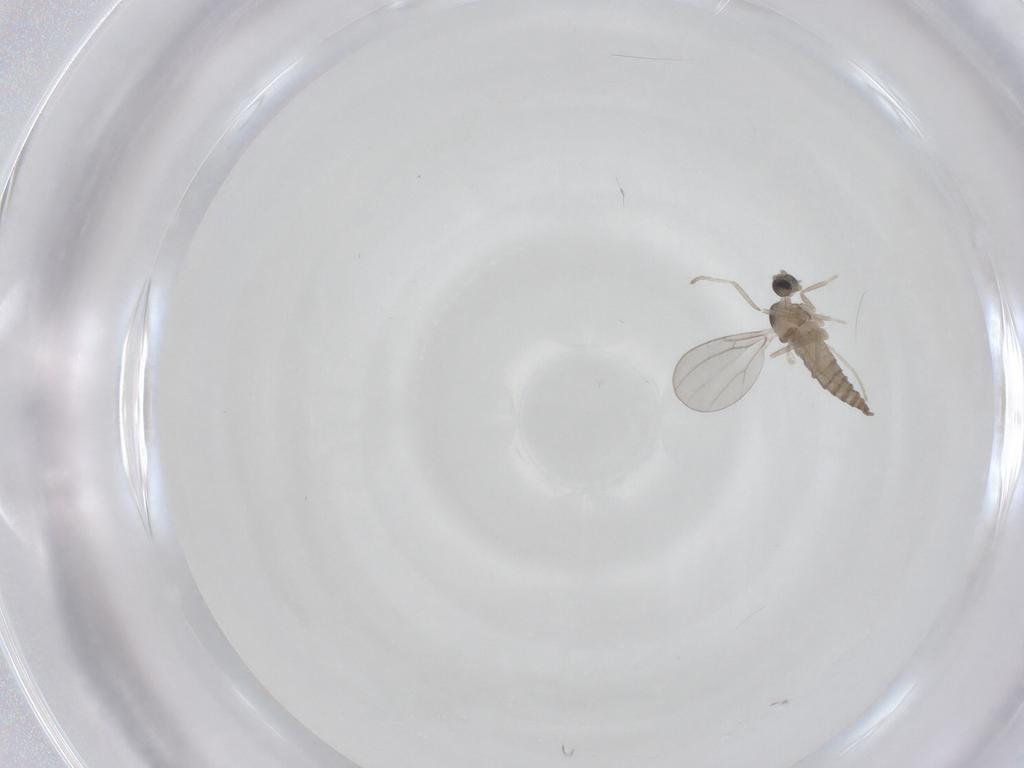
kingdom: Animalia
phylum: Arthropoda
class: Insecta
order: Diptera
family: Cecidomyiidae
